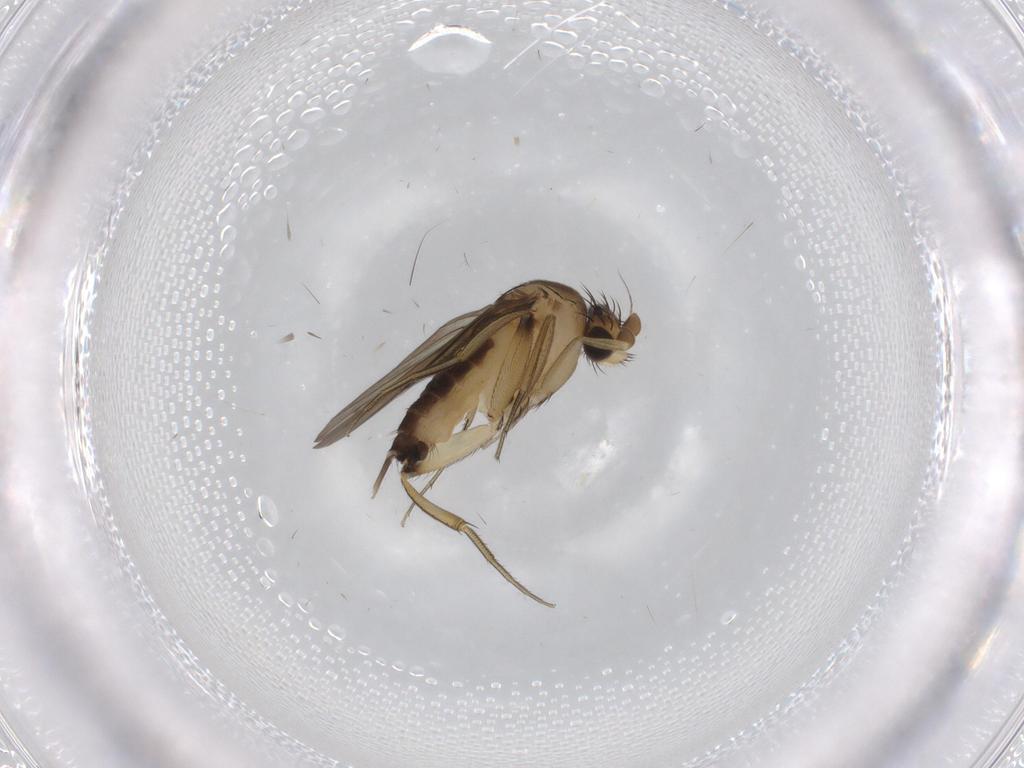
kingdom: Animalia
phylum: Arthropoda
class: Insecta
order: Diptera
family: Phoridae
